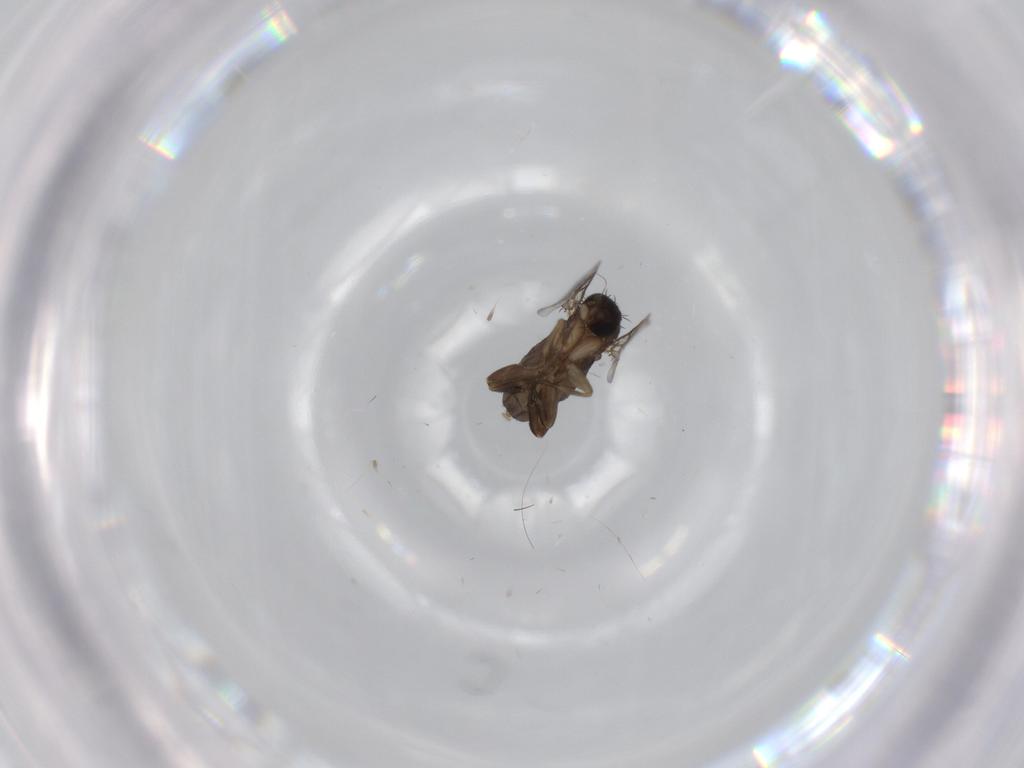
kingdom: Animalia
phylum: Arthropoda
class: Insecta
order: Diptera
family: Phoridae
